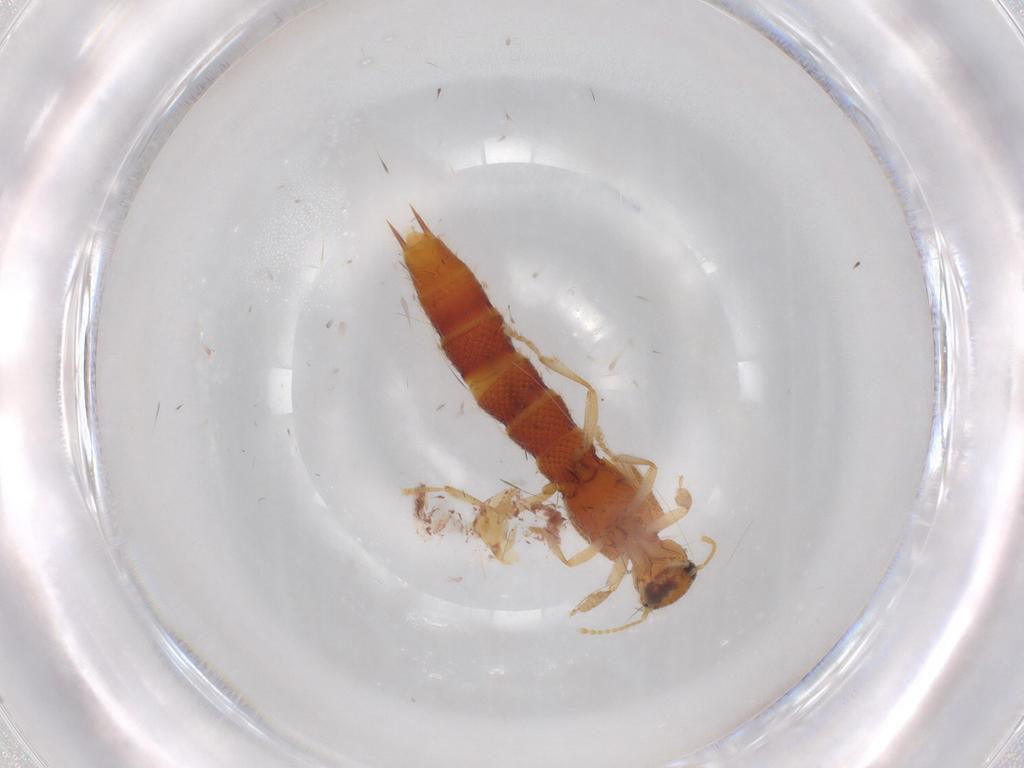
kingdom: Animalia
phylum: Arthropoda
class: Insecta
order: Coleoptera
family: Staphylinidae
